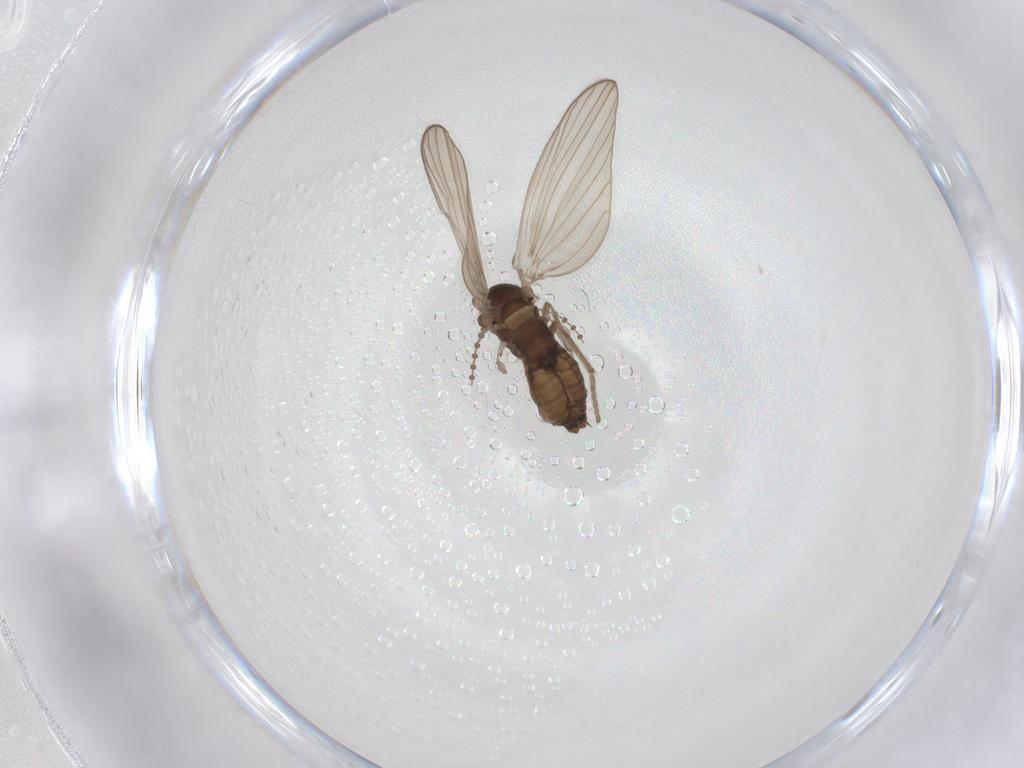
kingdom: Animalia
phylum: Arthropoda
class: Insecta
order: Diptera
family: Psychodidae
